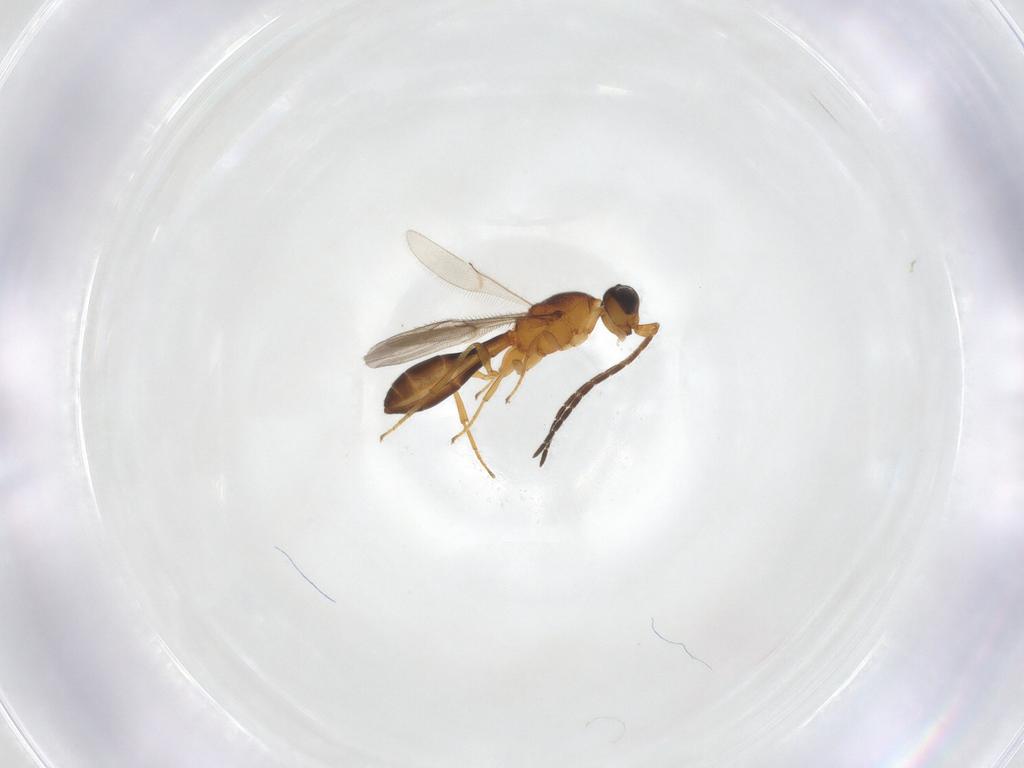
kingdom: Animalia
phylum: Arthropoda
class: Insecta
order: Hymenoptera
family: Scelionidae
